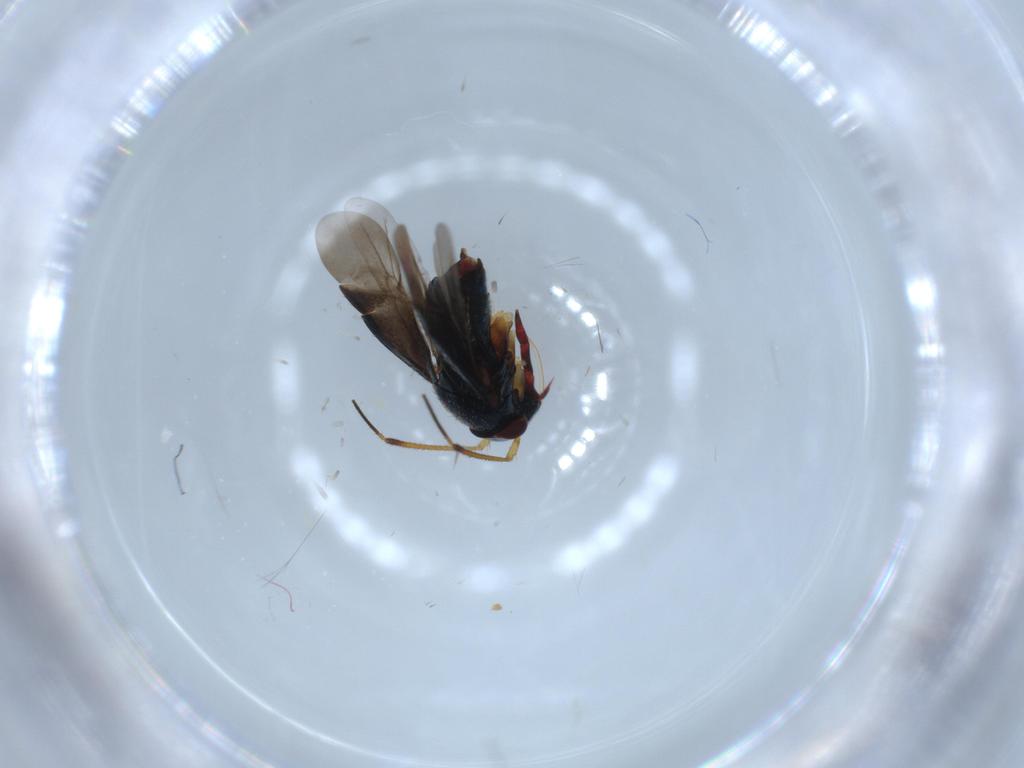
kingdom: Animalia
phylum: Arthropoda
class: Insecta
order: Hemiptera
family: Miridae
